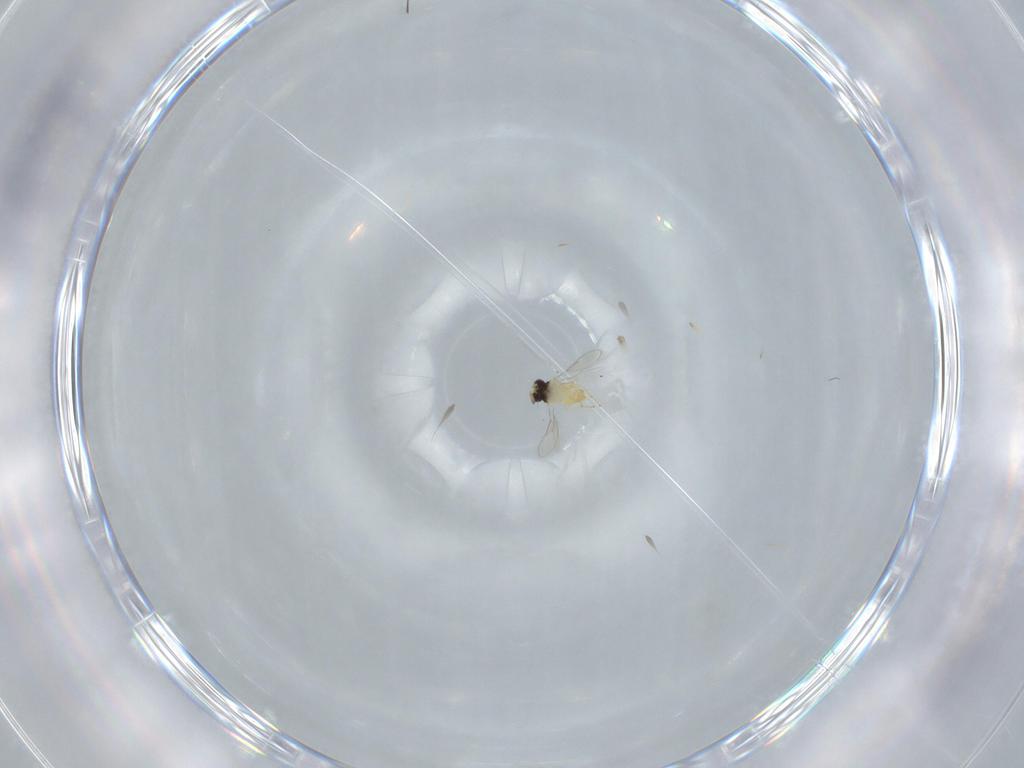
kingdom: Animalia
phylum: Arthropoda
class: Insecta
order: Hymenoptera
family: Aphelinidae
